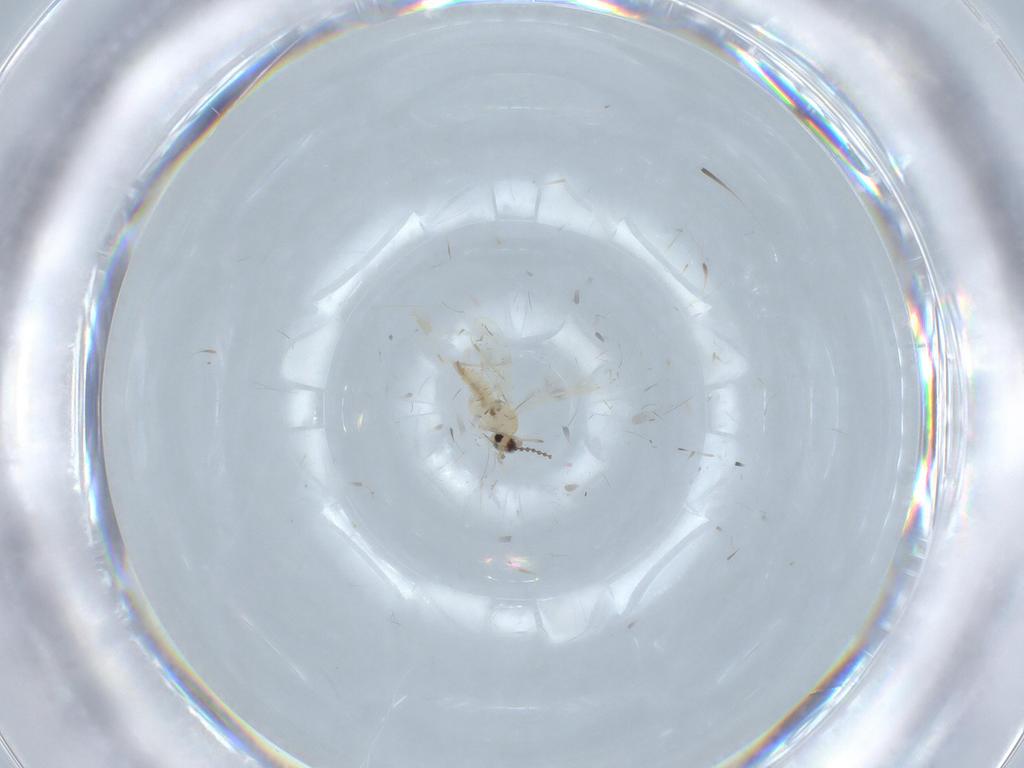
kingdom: Animalia
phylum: Arthropoda
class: Insecta
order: Diptera
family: Cecidomyiidae
